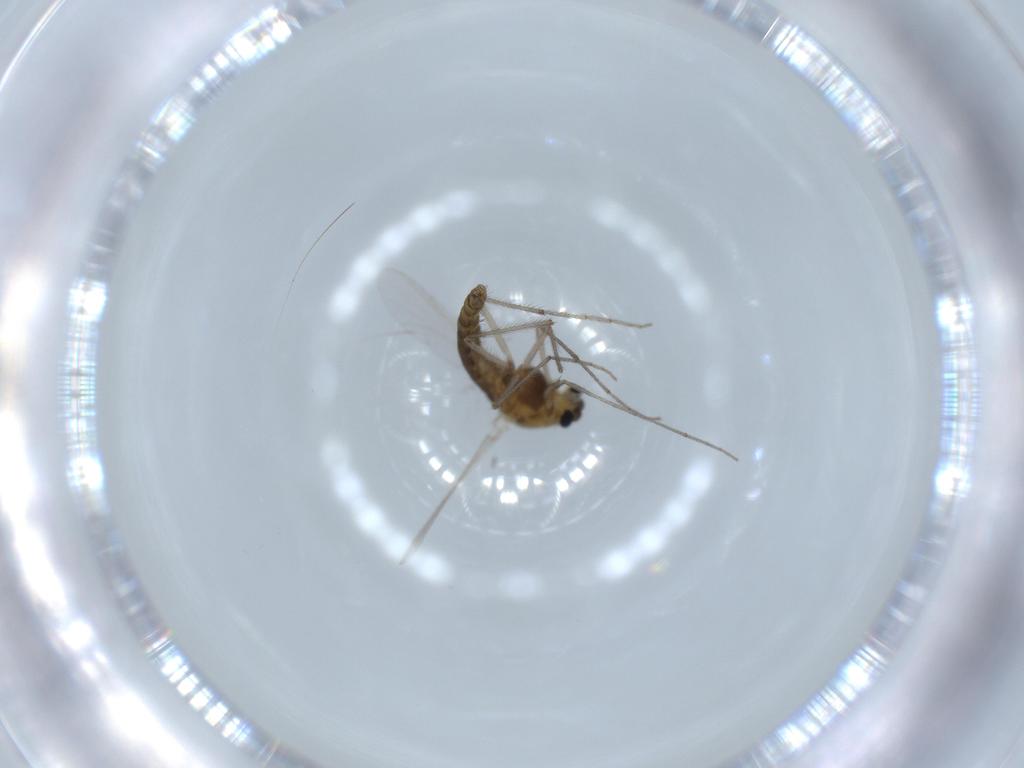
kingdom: Animalia
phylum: Arthropoda
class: Insecta
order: Diptera
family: Chironomidae
